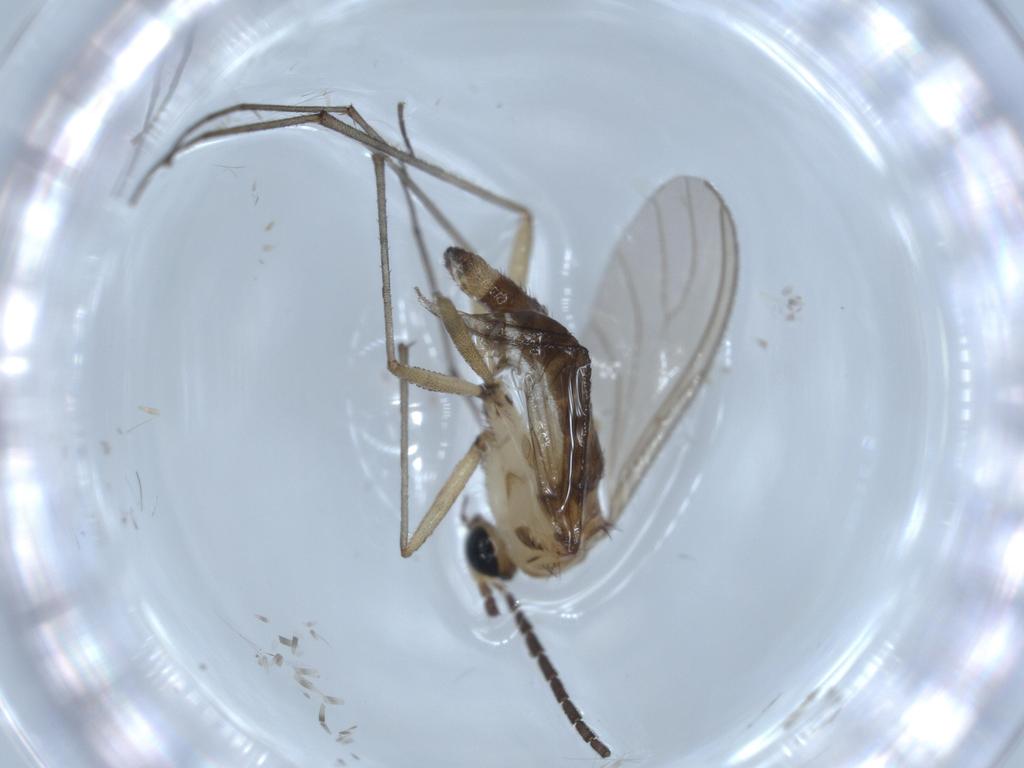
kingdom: Animalia
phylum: Arthropoda
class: Insecta
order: Diptera
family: Sciaridae
